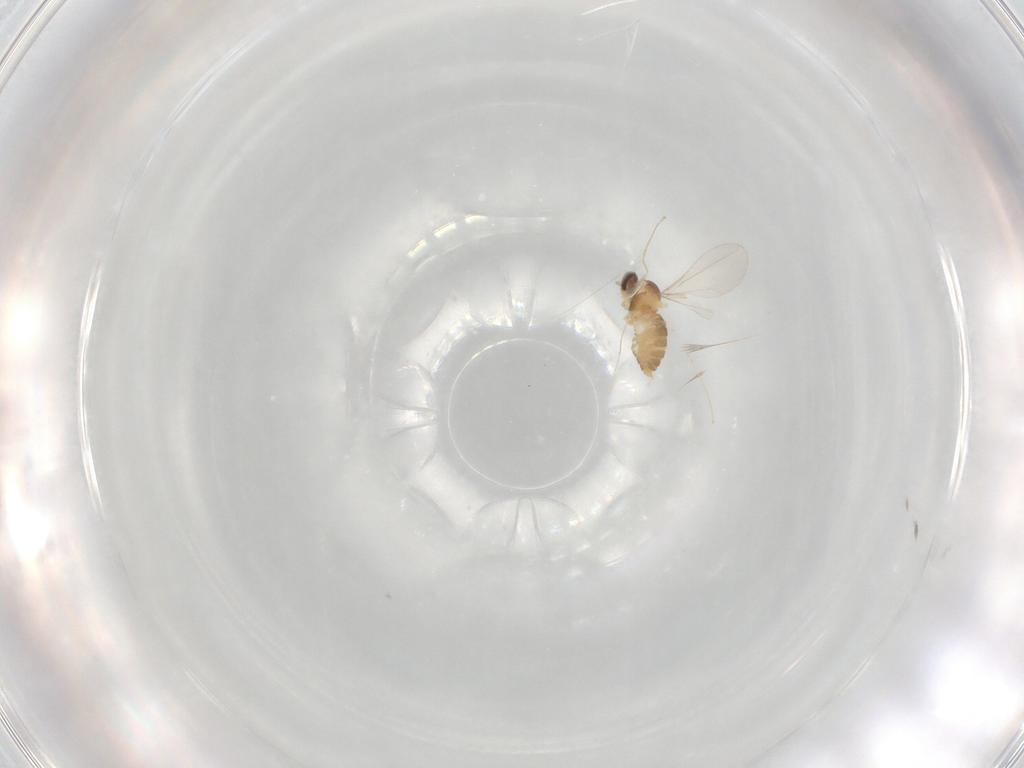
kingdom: Animalia
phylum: Arthropoda
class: Insecta
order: Diptera
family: Cecidomyiidae
